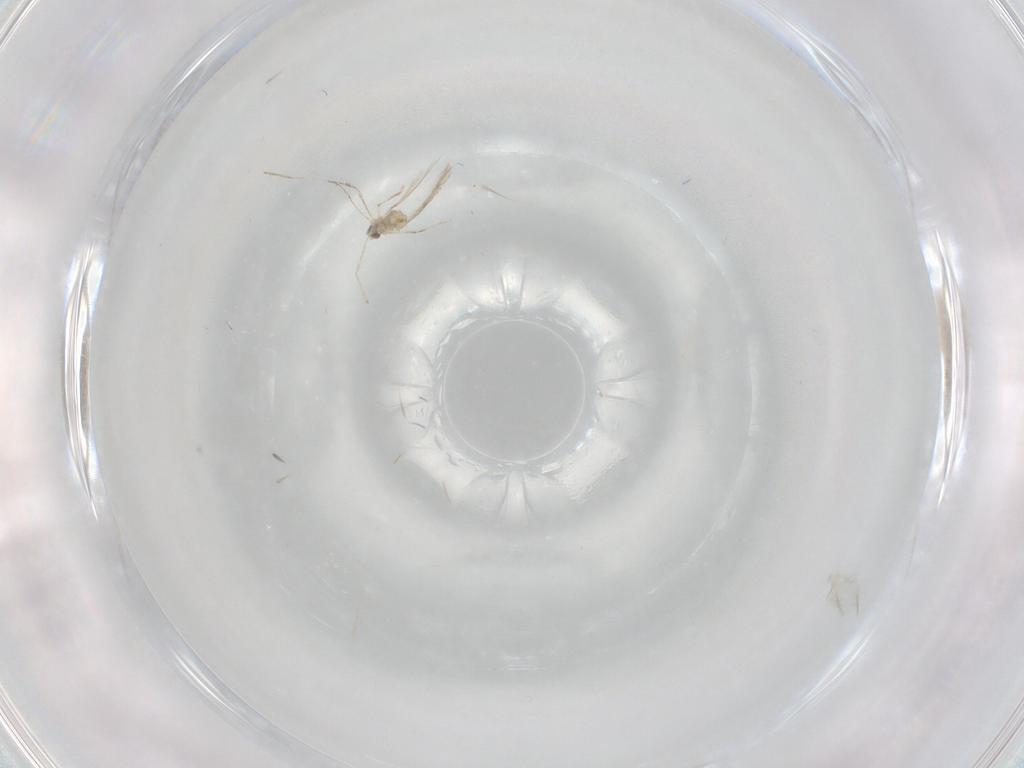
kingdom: Animalia
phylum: Arthropoda
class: Insecta
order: Diptera
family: Cecidomyiidae
